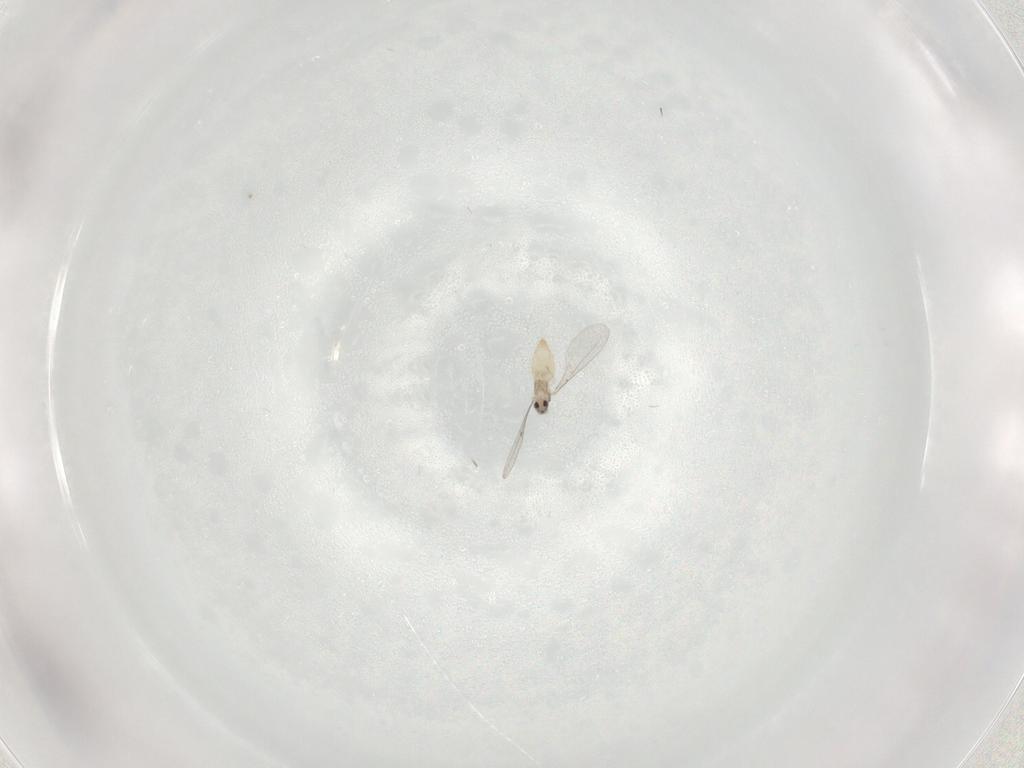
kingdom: Animalia
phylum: Arthropoda
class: Insecta
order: Diptera
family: Cecidomyiidae
